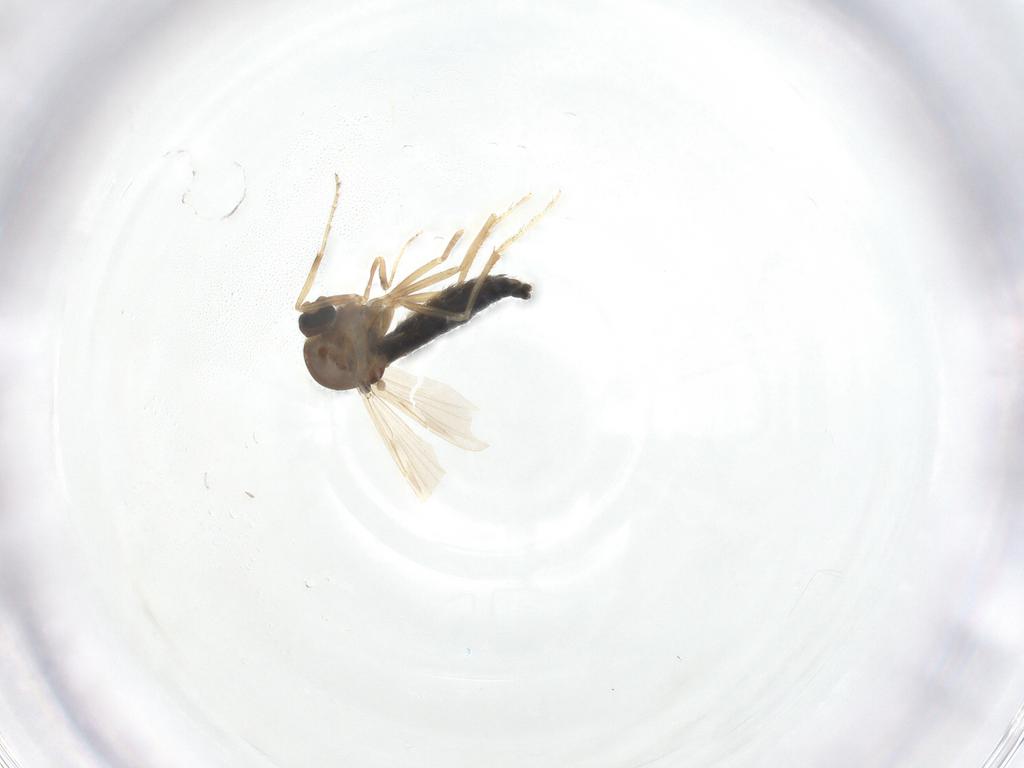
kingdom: Animalia
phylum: Arthropoda
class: Insecta
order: Diptera
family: Ceratopogonidae
